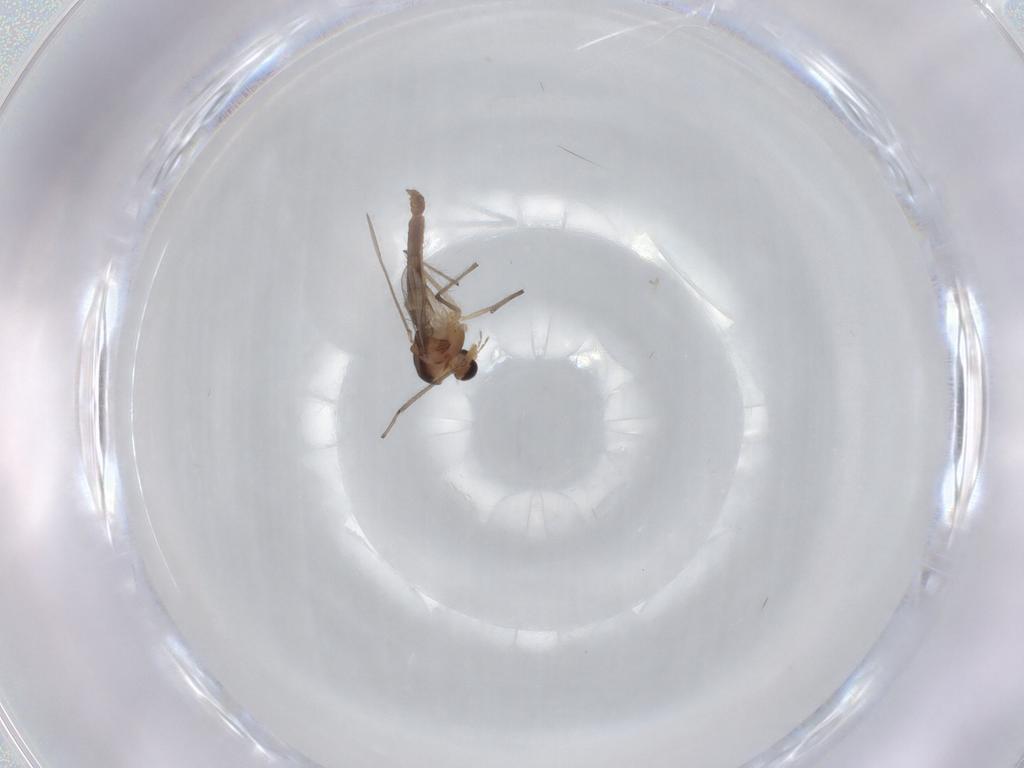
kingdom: Animalia
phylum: Arthropoda
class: Insecta
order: Diptera
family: Chironomidae
